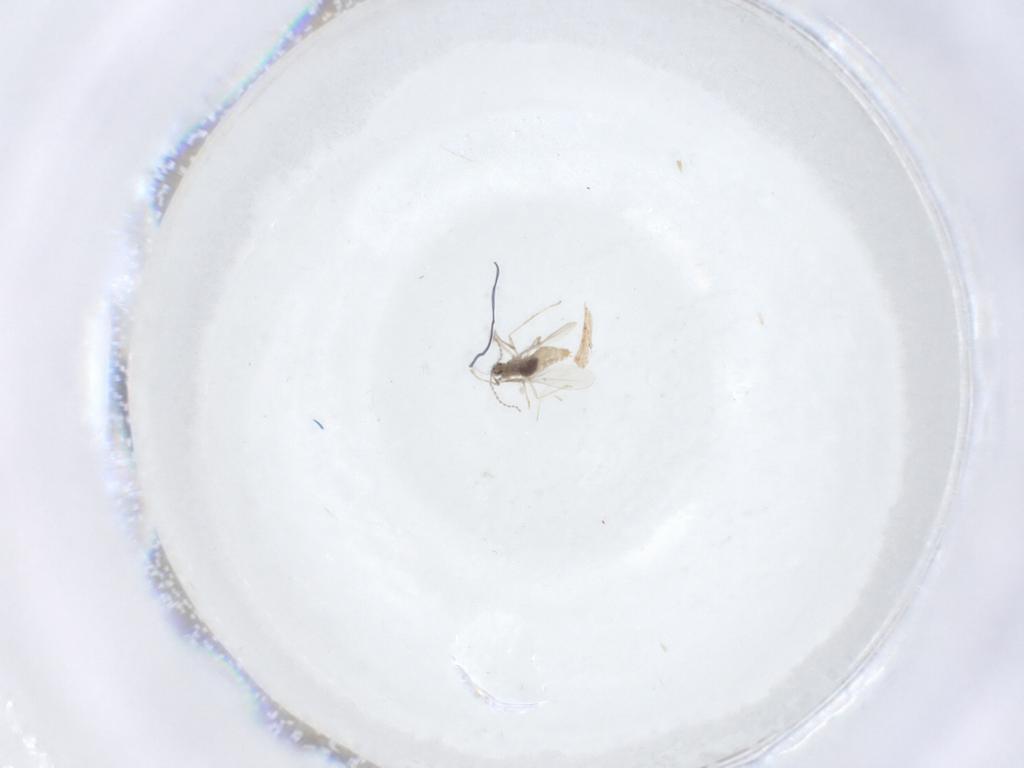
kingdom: Animalia
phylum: Arthropoda
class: Insecta
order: Diptera
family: Cecidomyiidae
